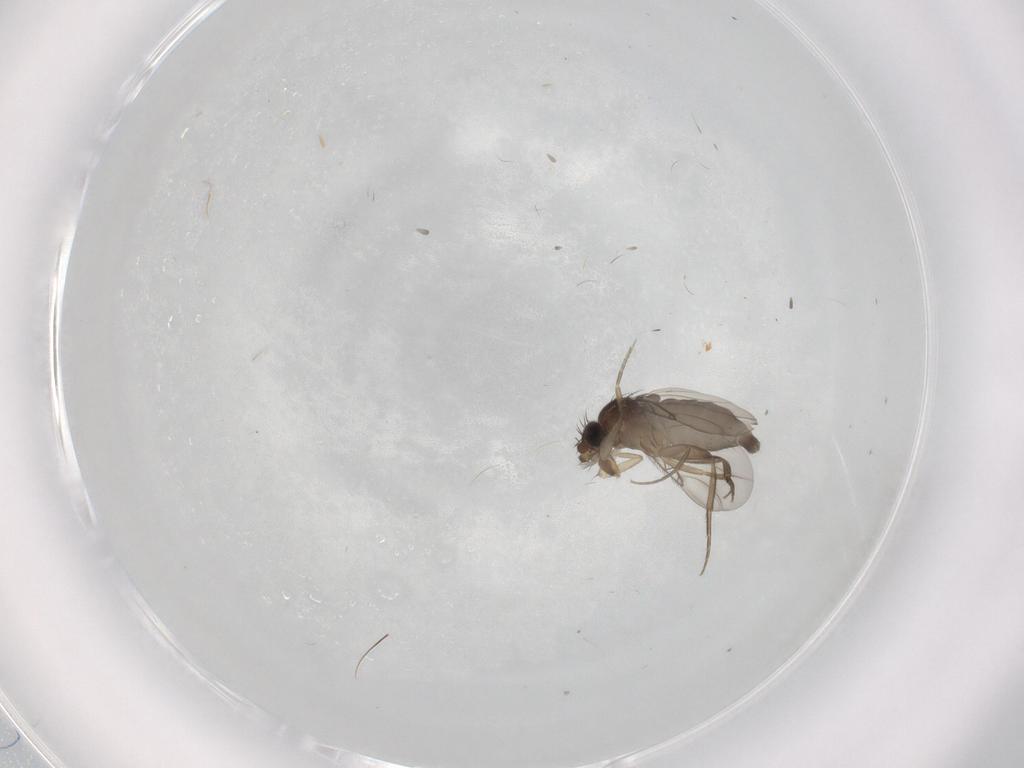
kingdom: Animalia
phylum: Arthropoda
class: Insecta
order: Diptera
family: Phoridae
